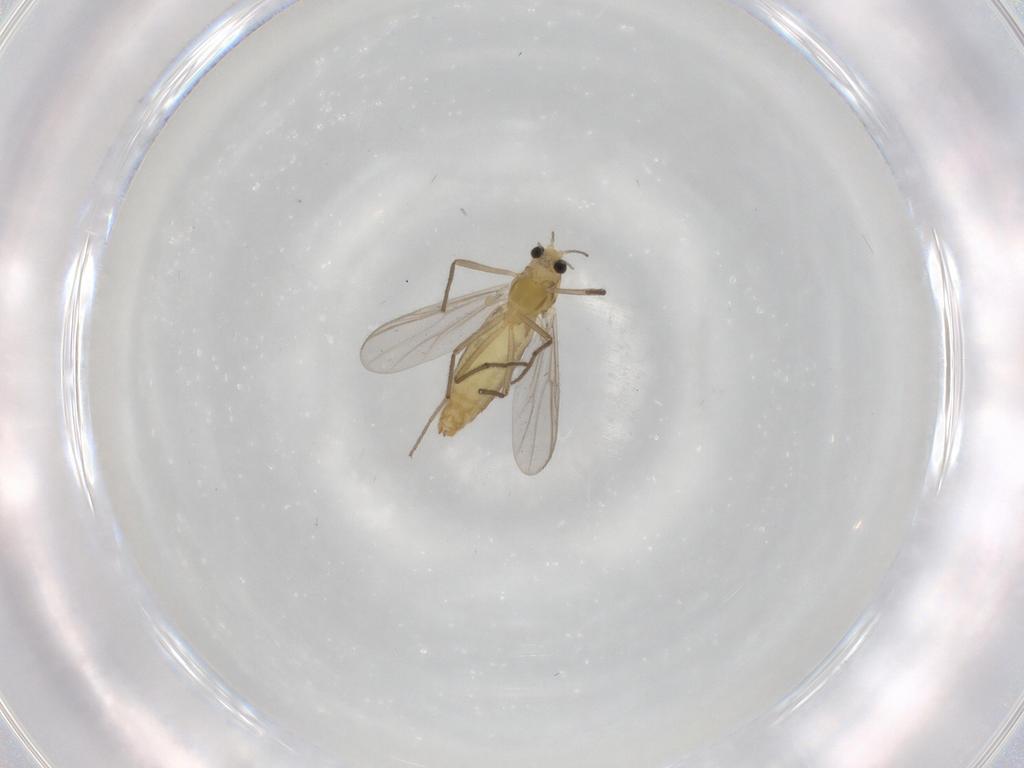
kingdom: Animalia
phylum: Arthropoda
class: Insecta
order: Diptera
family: Chironomidae
